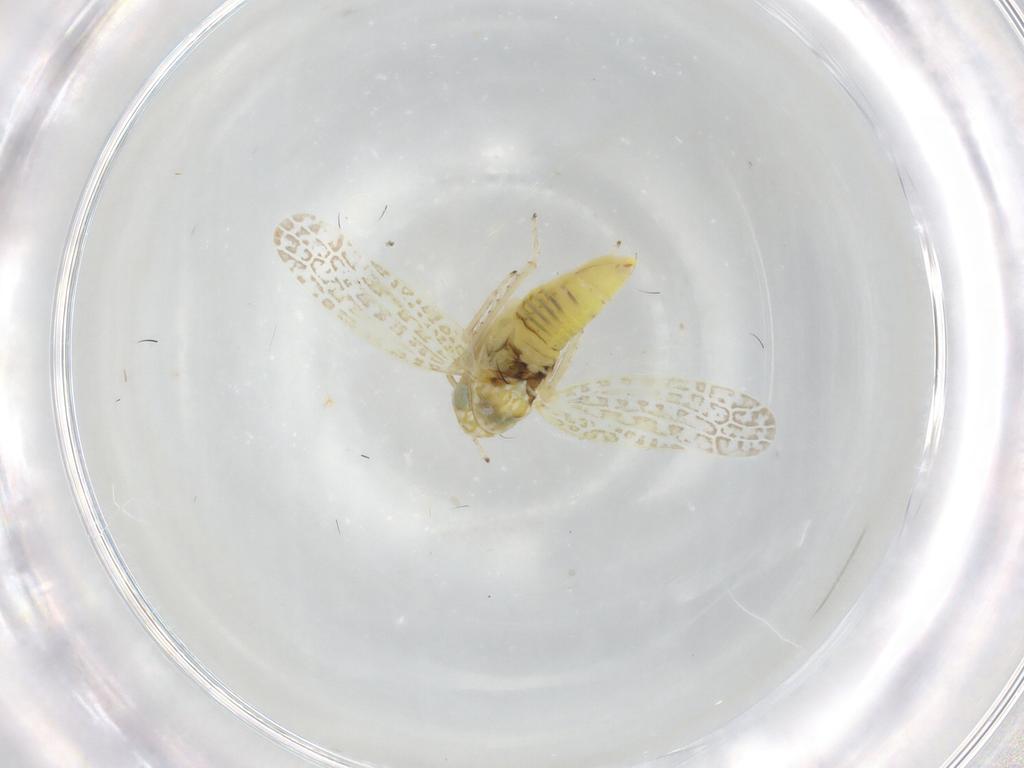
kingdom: Animalia
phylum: Arthropoda
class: Insecta
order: Hemiptera
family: Cicadellidae
